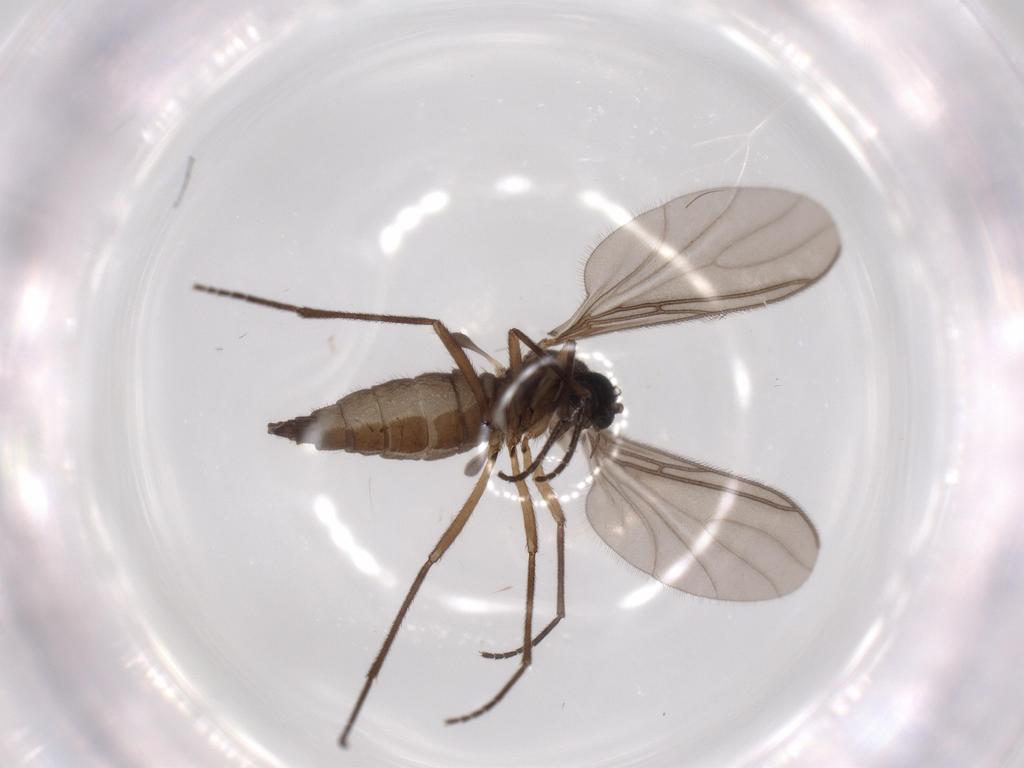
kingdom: Animalia
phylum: Arthropoda
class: Insecta
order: Diptera
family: Sciaridae
